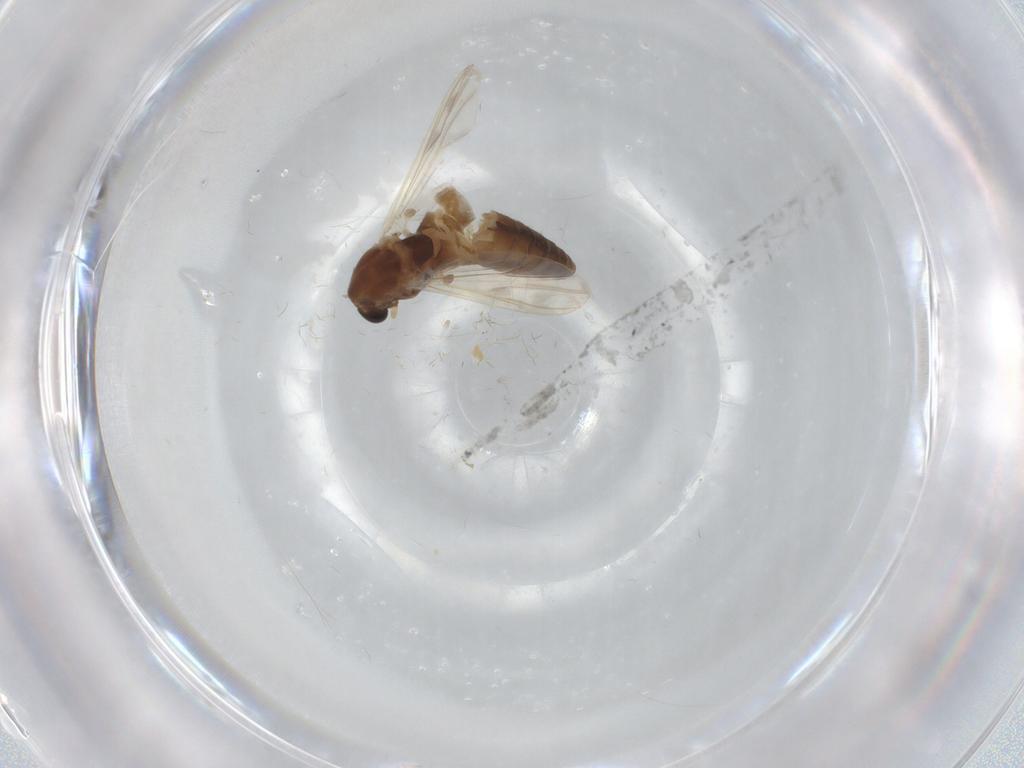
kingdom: Animalia
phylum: Arthropoda
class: Insecta
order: Diptera
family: Chironomidae
